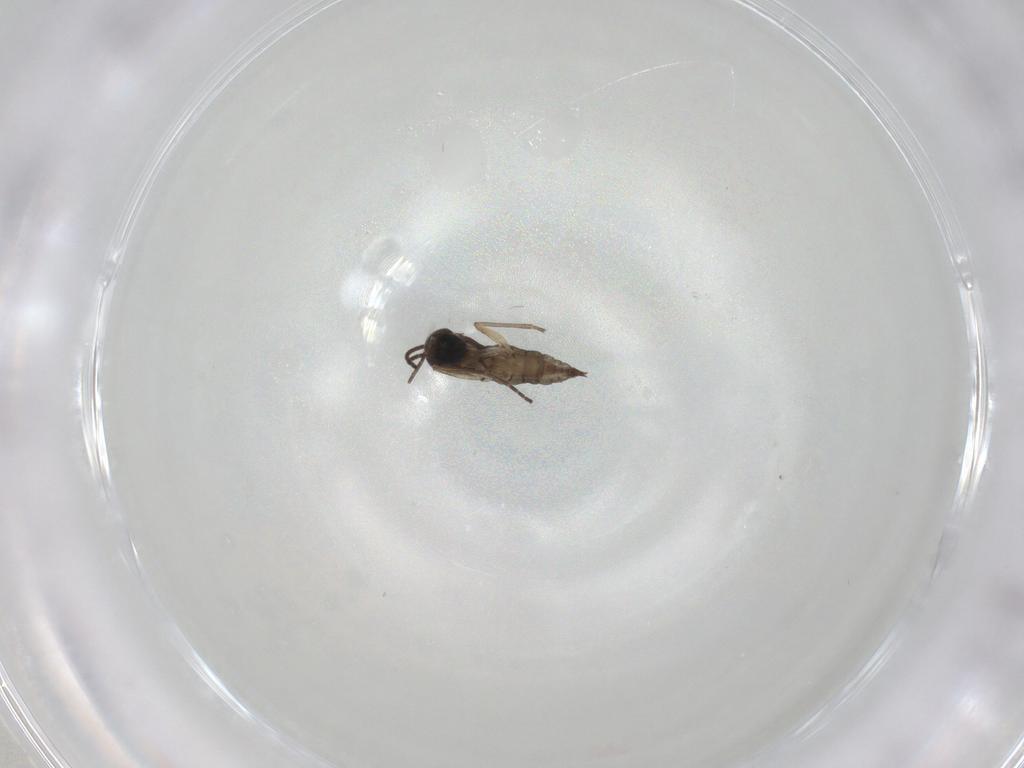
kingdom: Animalia
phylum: Arthropoda
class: Insecta
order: Diptera
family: Sciaridae
